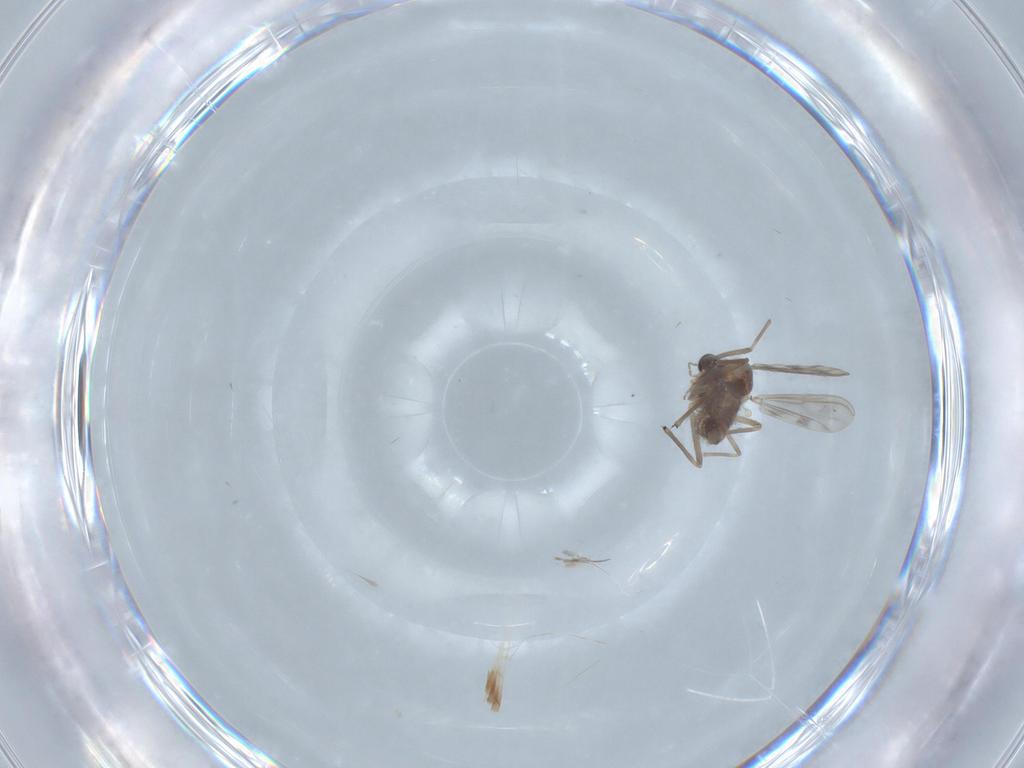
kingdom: Animalia
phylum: Arthropoda
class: Insecta
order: Diptera
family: Chironomidae
